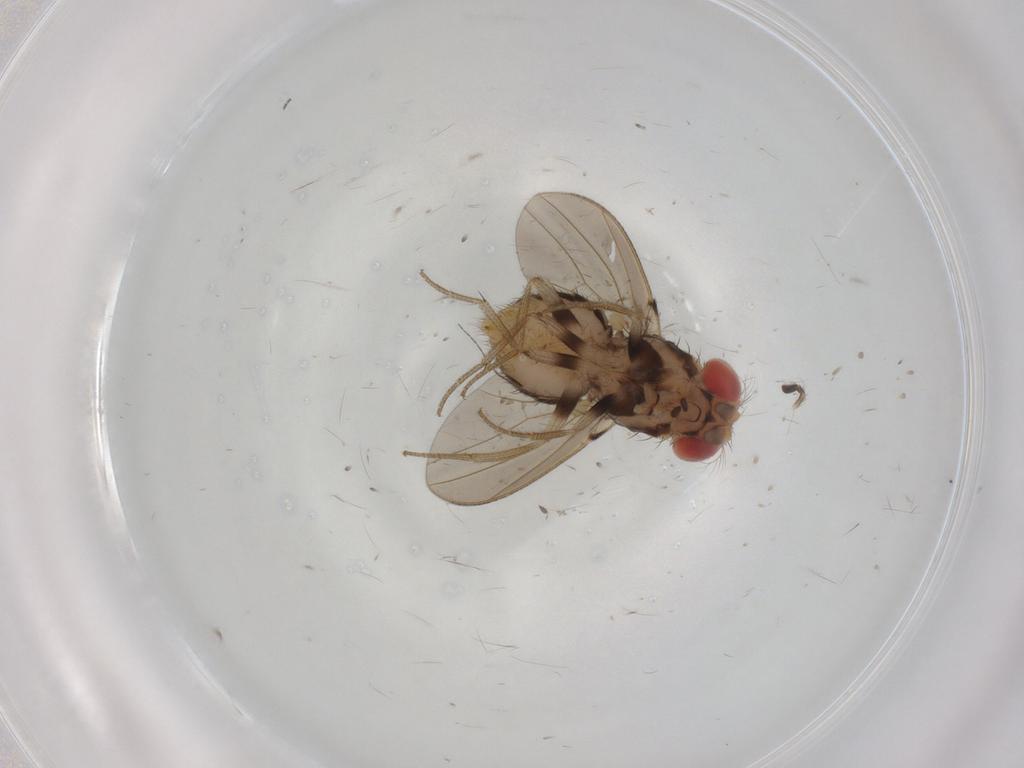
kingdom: Animalia
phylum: Arthropoda
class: Insecta
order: Diptera
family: Drosophilidae
